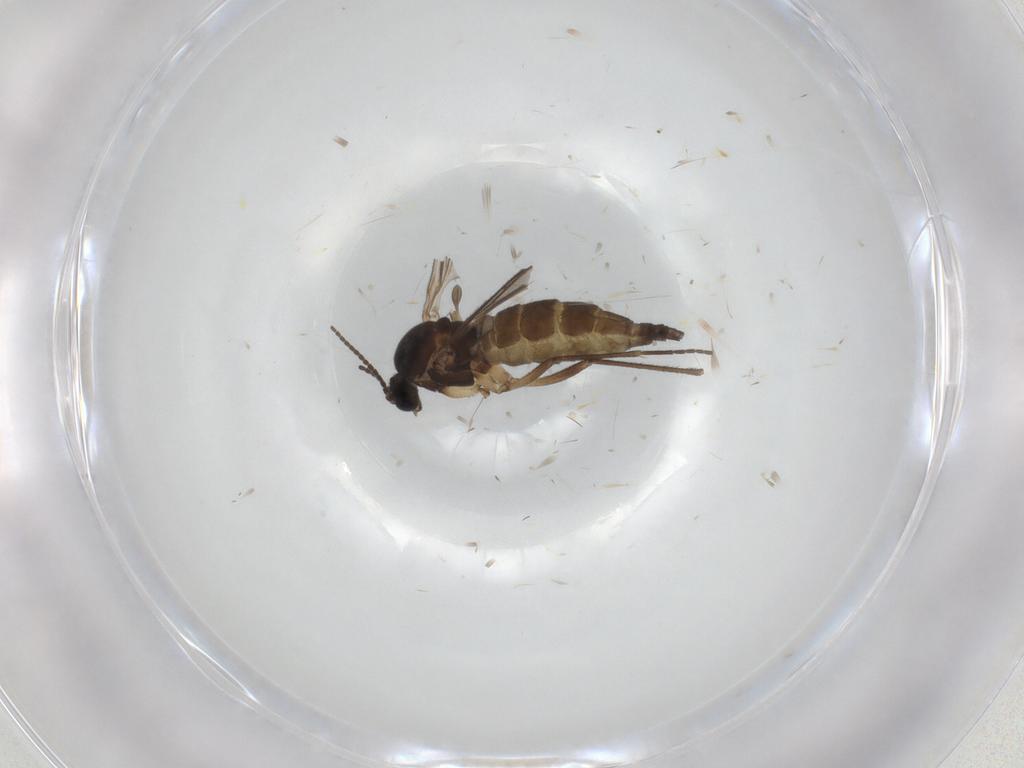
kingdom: Animalia
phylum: Arthropoda
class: Insecta
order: Diptera
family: Sciaridae
